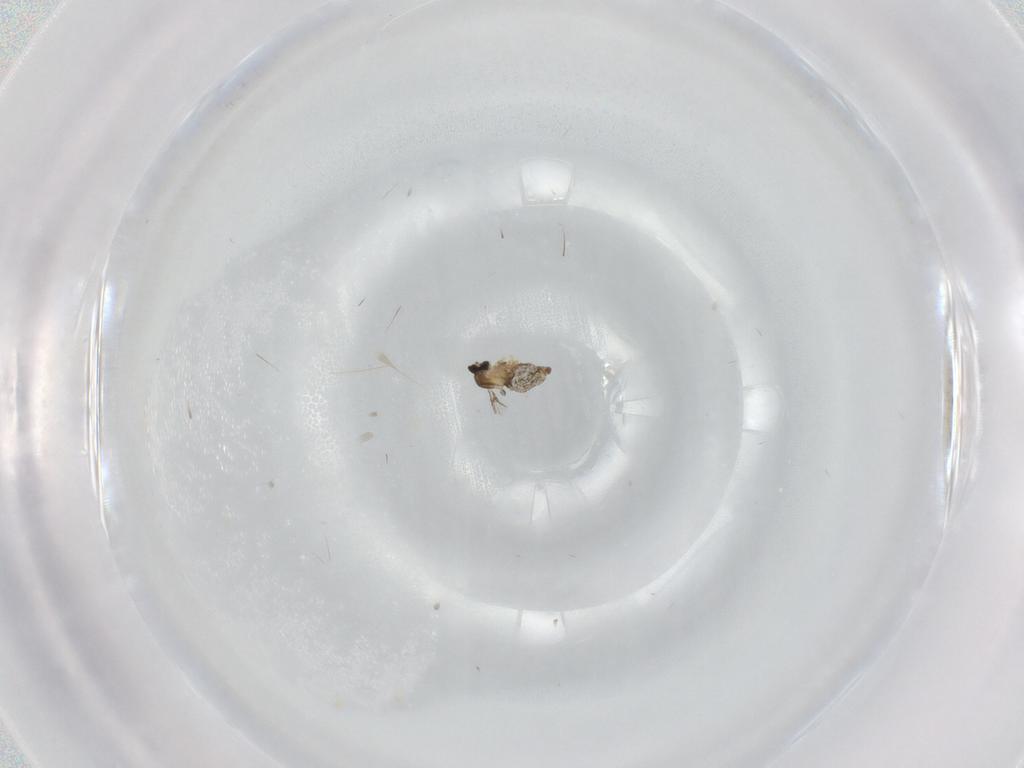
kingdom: Animalia
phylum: Arthropoda
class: Insecta
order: Diptera
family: Cecidomyiidae
